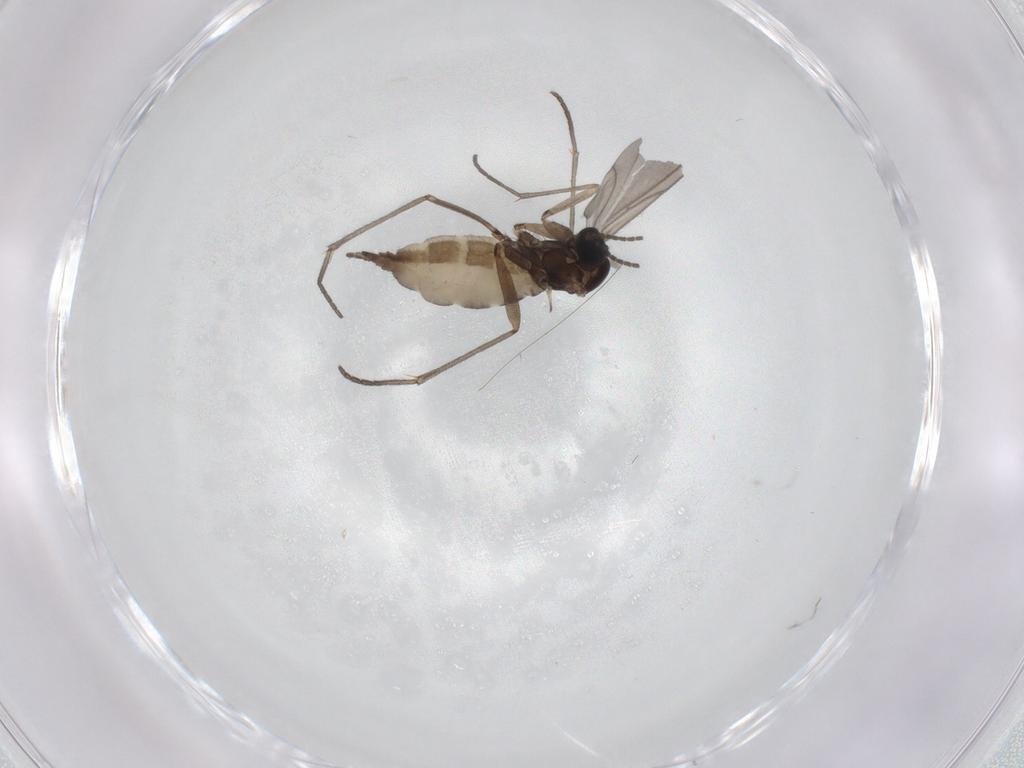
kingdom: Animalia
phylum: Arthropoda
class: Insecta
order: Diptera
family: Sciaridae
